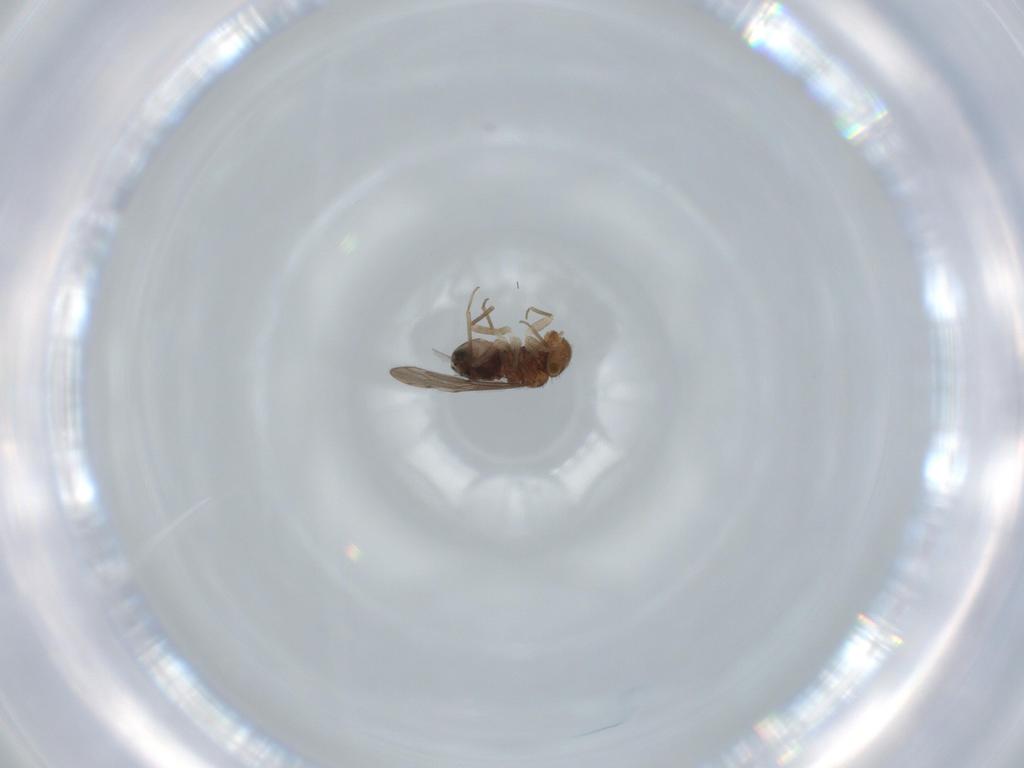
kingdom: Animalia
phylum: Arthropoda
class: Insecta
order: Psocodea
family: Ectopsocidae
